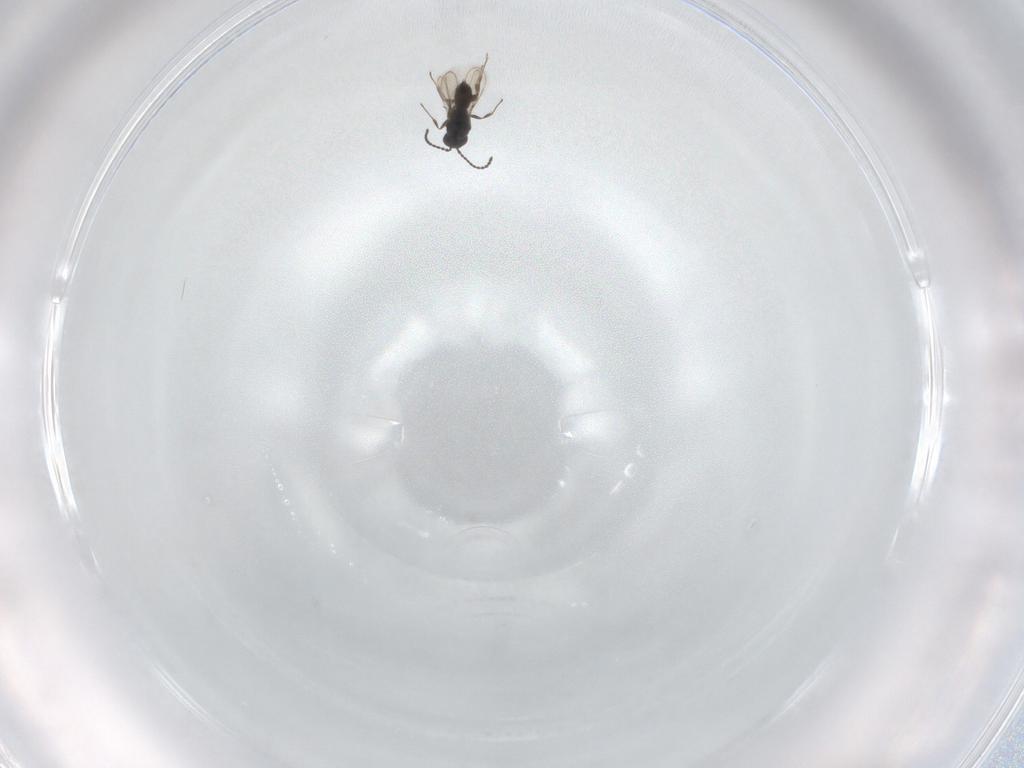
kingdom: Animalia
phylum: Arthropoda
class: Insecta
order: Hymenoptera
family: Scelionidae
